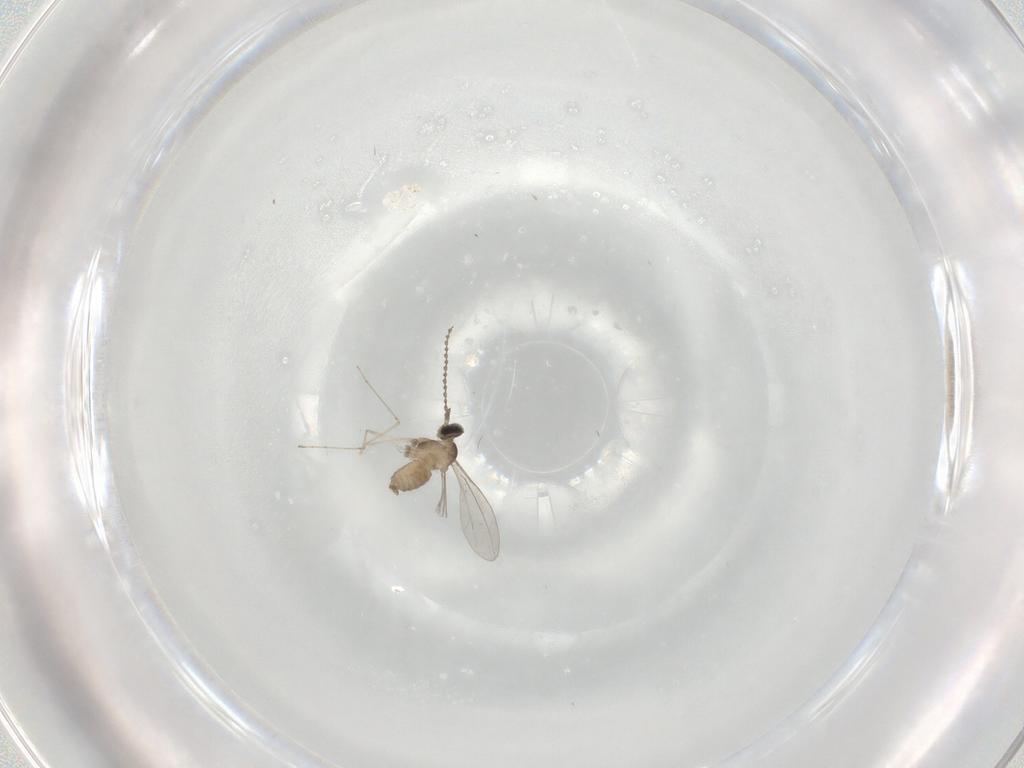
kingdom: Animalia
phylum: Arthropoda
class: Insecta
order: Diptera
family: Cecidomyiidae
